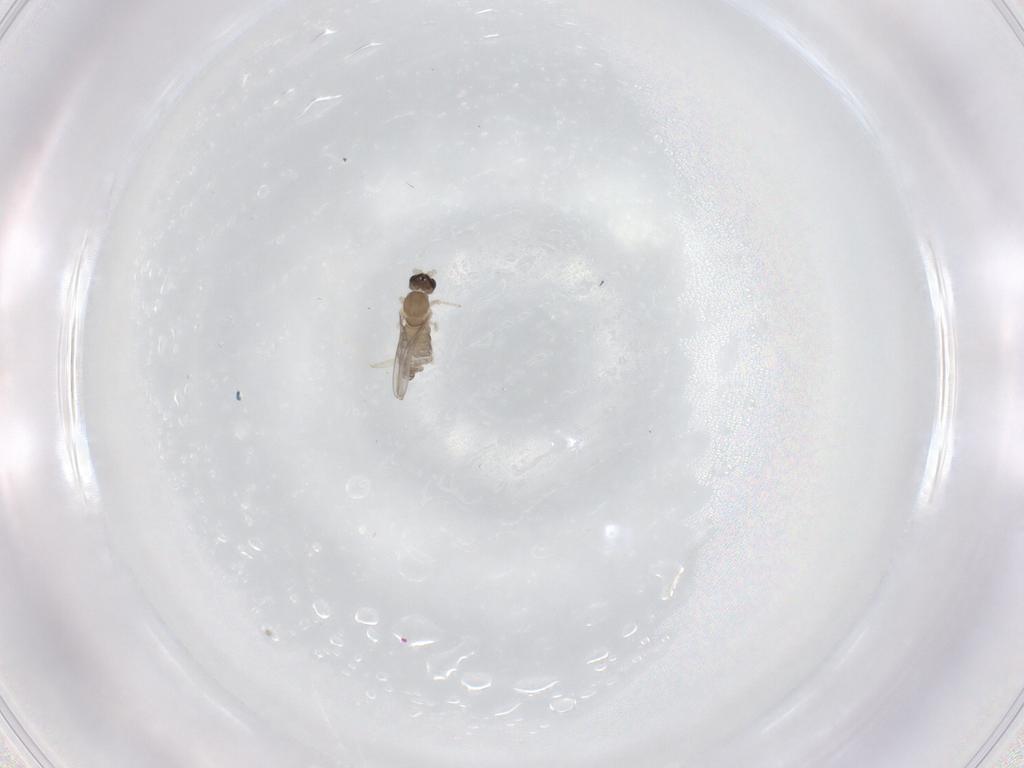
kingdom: Animalia
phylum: Arthropoda
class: Insecta
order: Diptera
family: Cecidomyiidae
